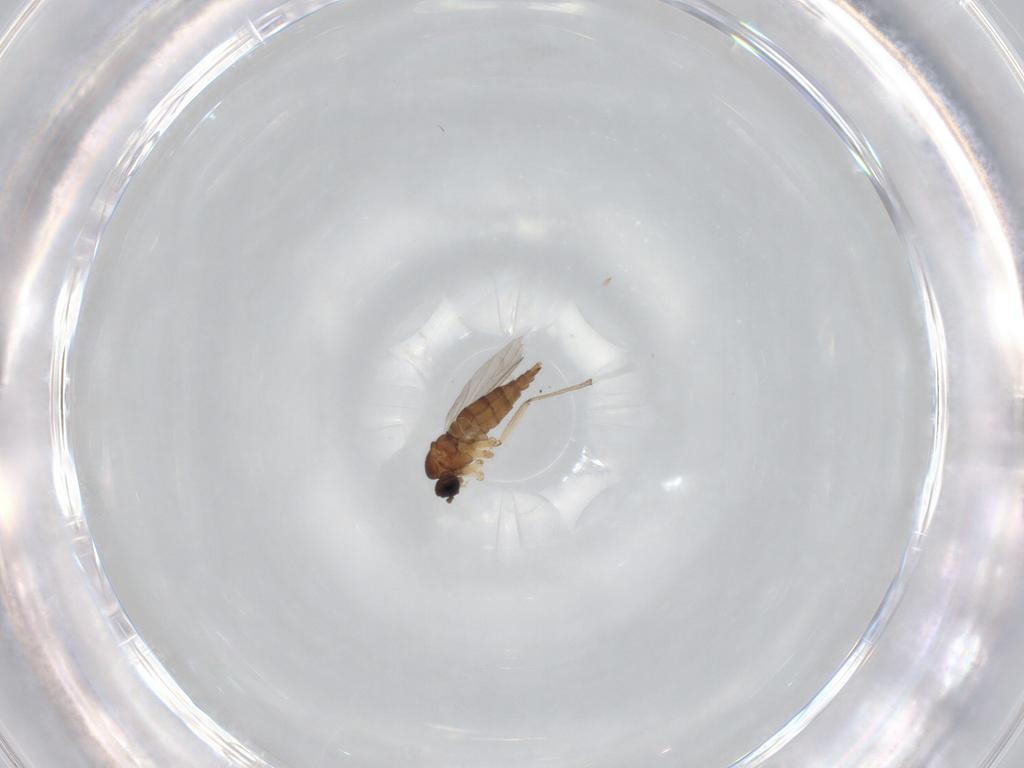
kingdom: Animalia
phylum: Arthropoda
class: Insecta
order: Diptera
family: Sciaridae
